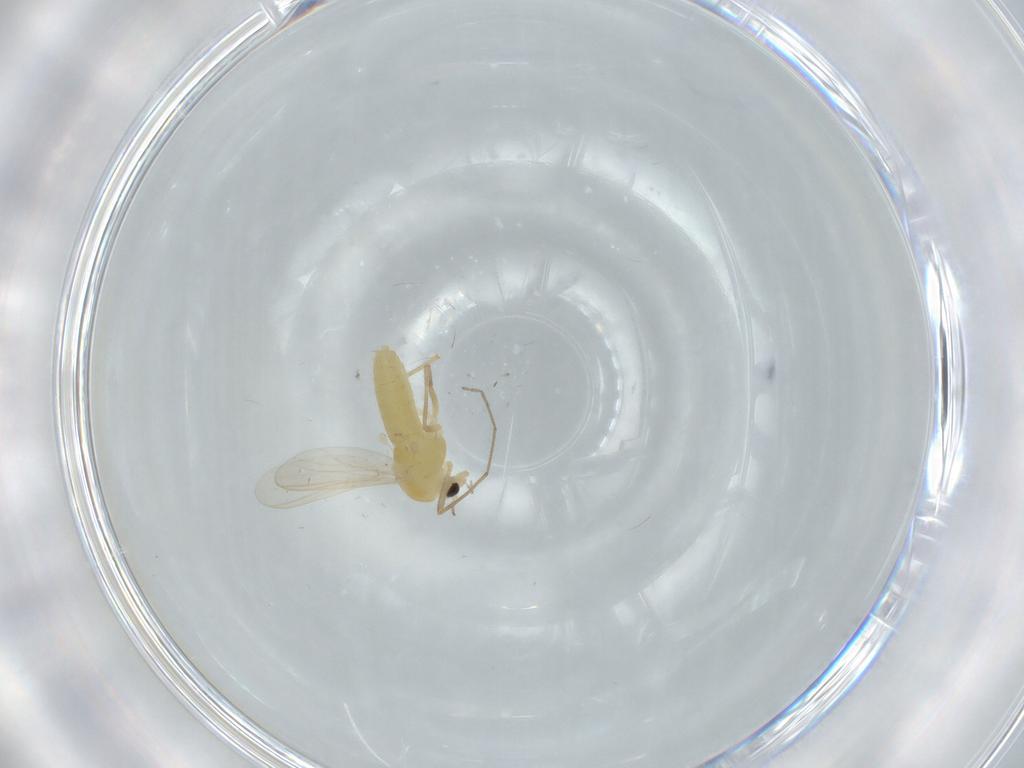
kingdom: Animalia
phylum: Arthropoda
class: Insecta
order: Diptera
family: Chironomidae
